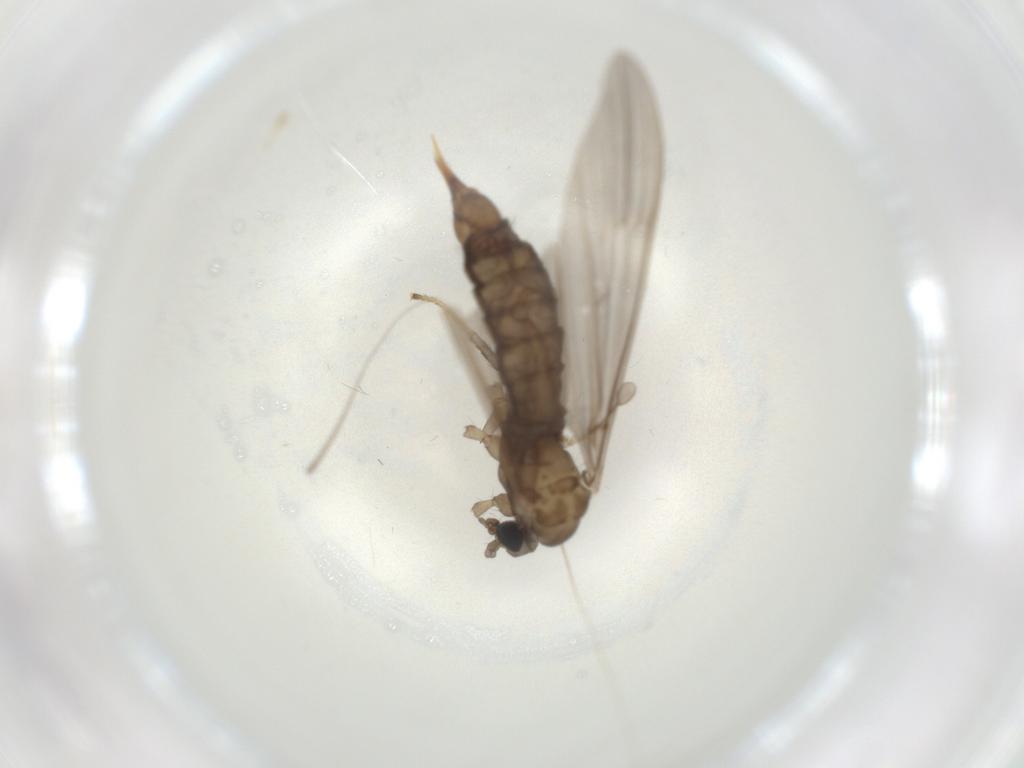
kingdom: Animalia
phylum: Arthropoda
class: Insecta
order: Diptera
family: Limoniidae
